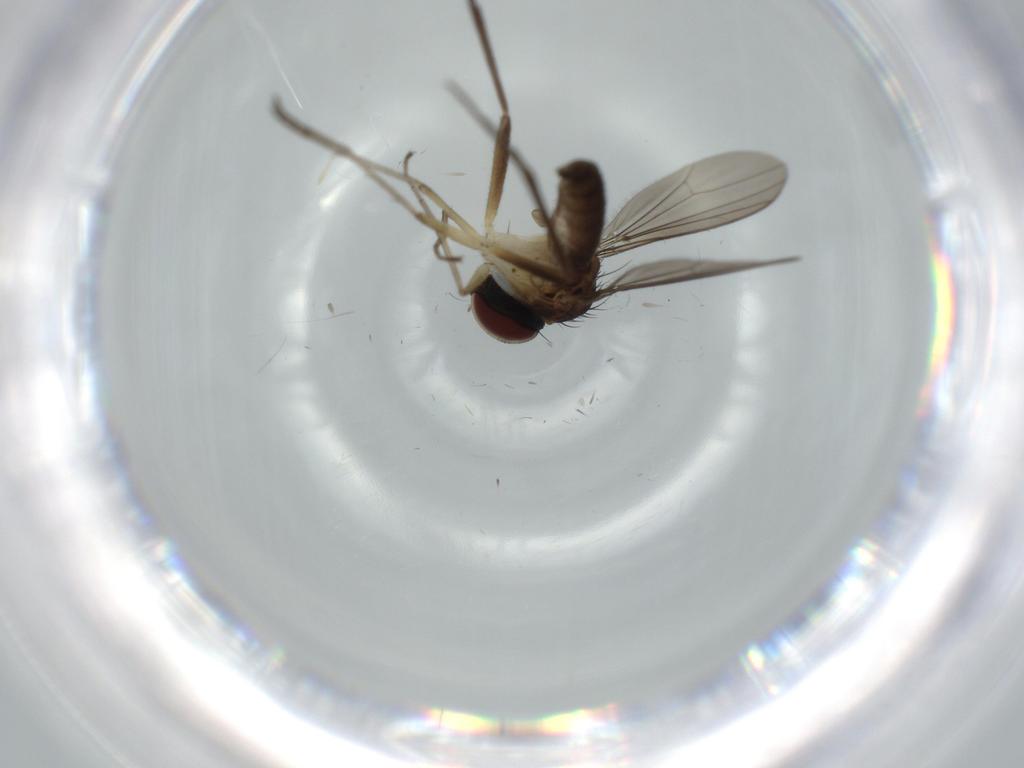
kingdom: Animalia
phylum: Arthropoda
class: Insecta
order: Diptera
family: Dolichopodidae
